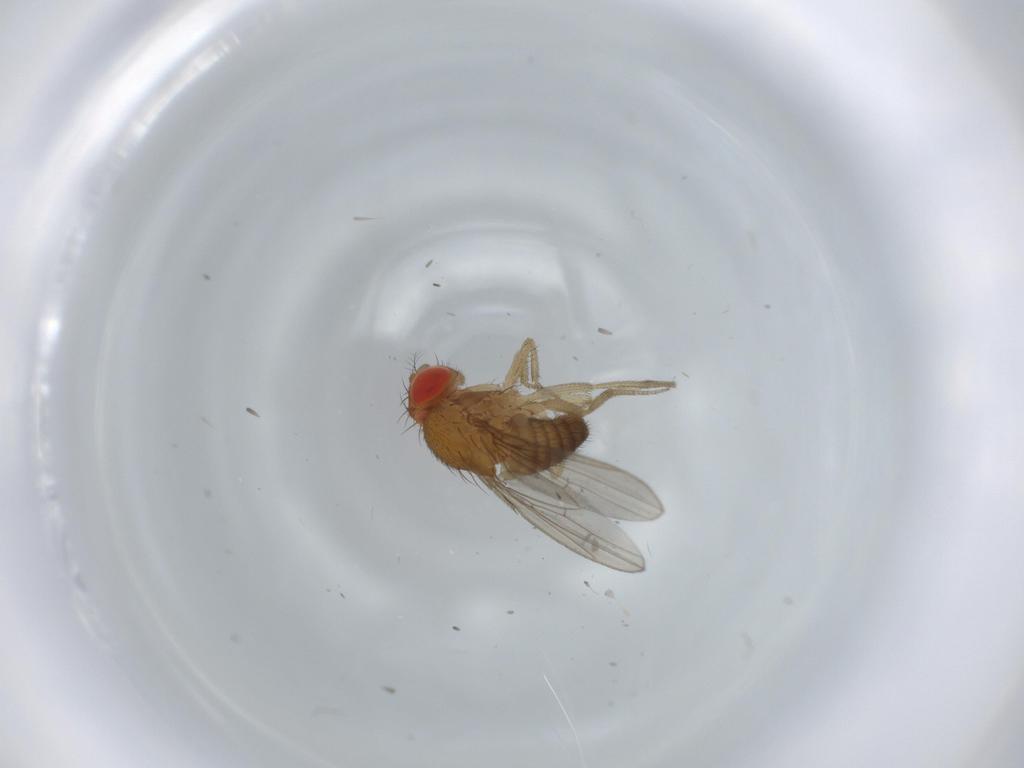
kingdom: Animalia
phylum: Arthropoda
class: Insecta
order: Diptera
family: Drosophilidae
